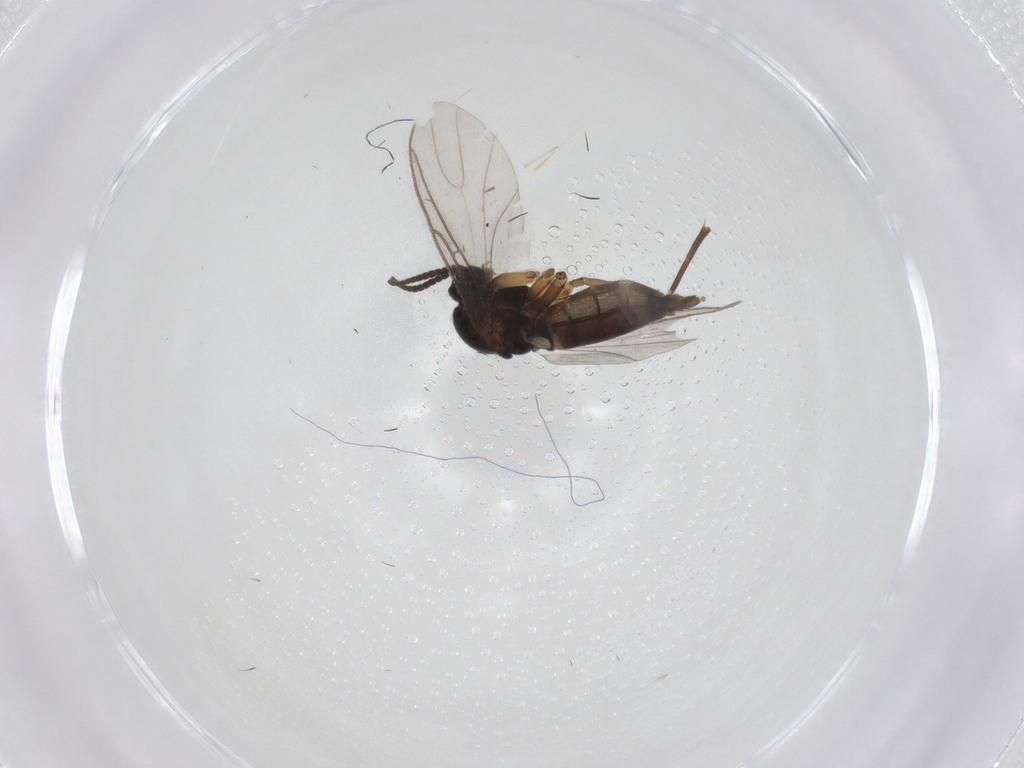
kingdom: Animalia
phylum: Arthropoda
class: Insecta
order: Diptera
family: Cecidomyiidae
